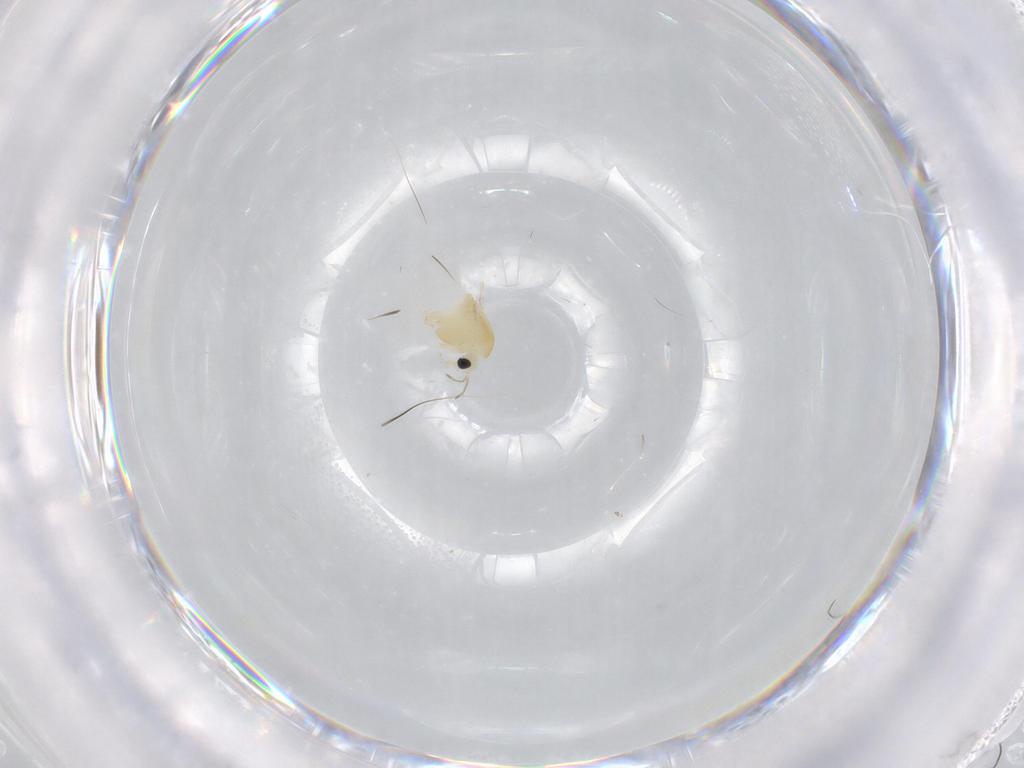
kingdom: Animalia
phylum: Arthropoda
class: Insecta
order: Diptera
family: Chironomidae
